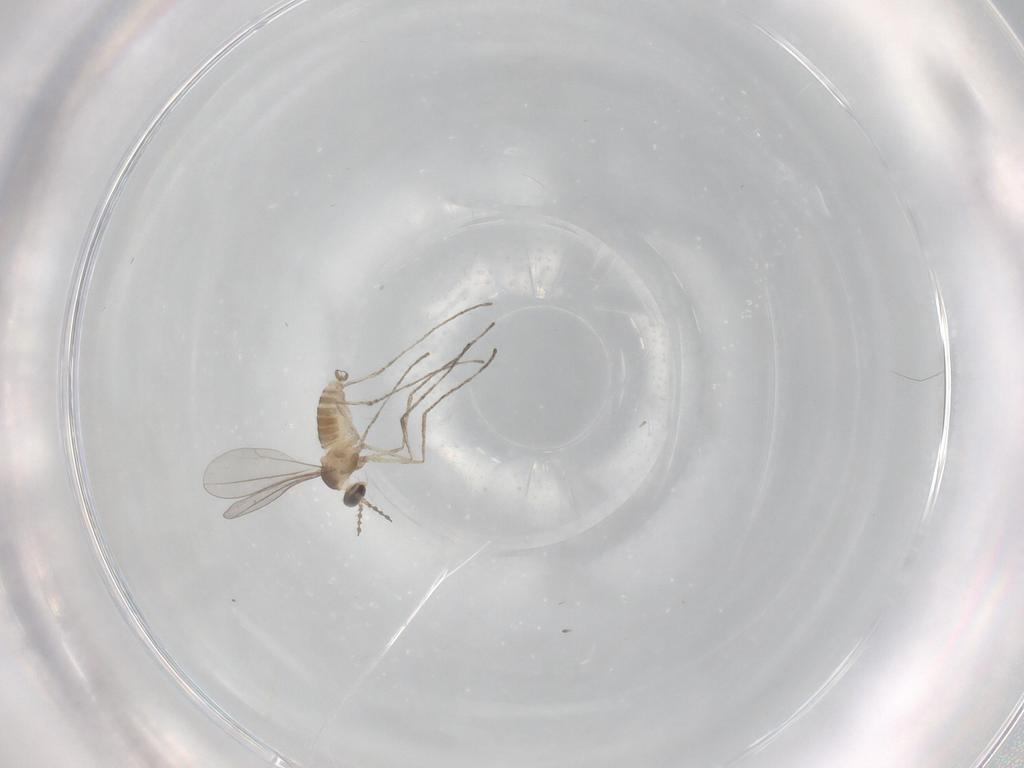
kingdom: Animalia
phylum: Arthropoda
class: Insecta
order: Diptera
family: Cecidomyiidae
